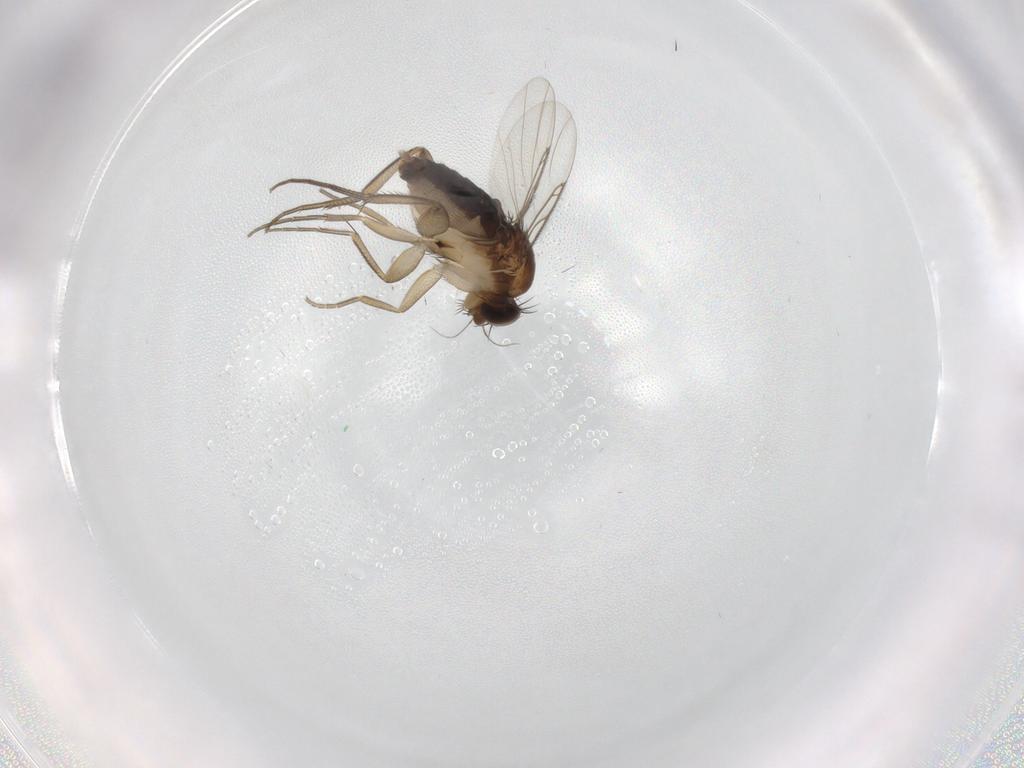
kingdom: Animalia
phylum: Arthropoda
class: Insecta
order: Diptera
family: Phoridae
